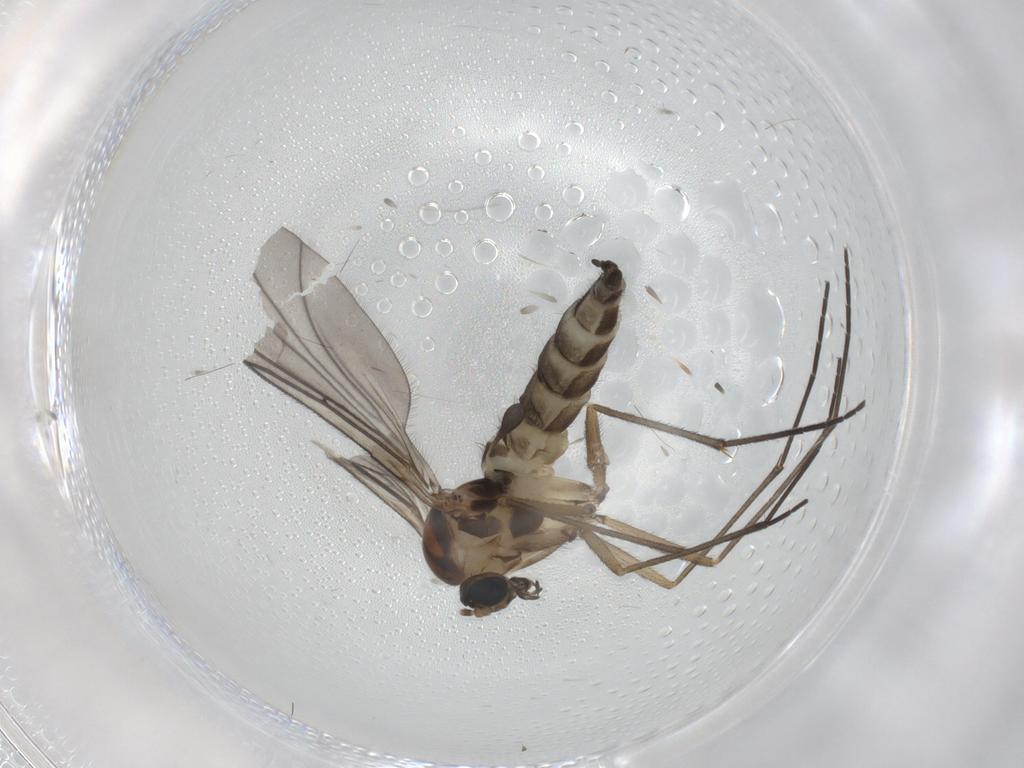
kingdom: Animalia
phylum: Arthropoda
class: Insecta
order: Diptera
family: Sciaridae
